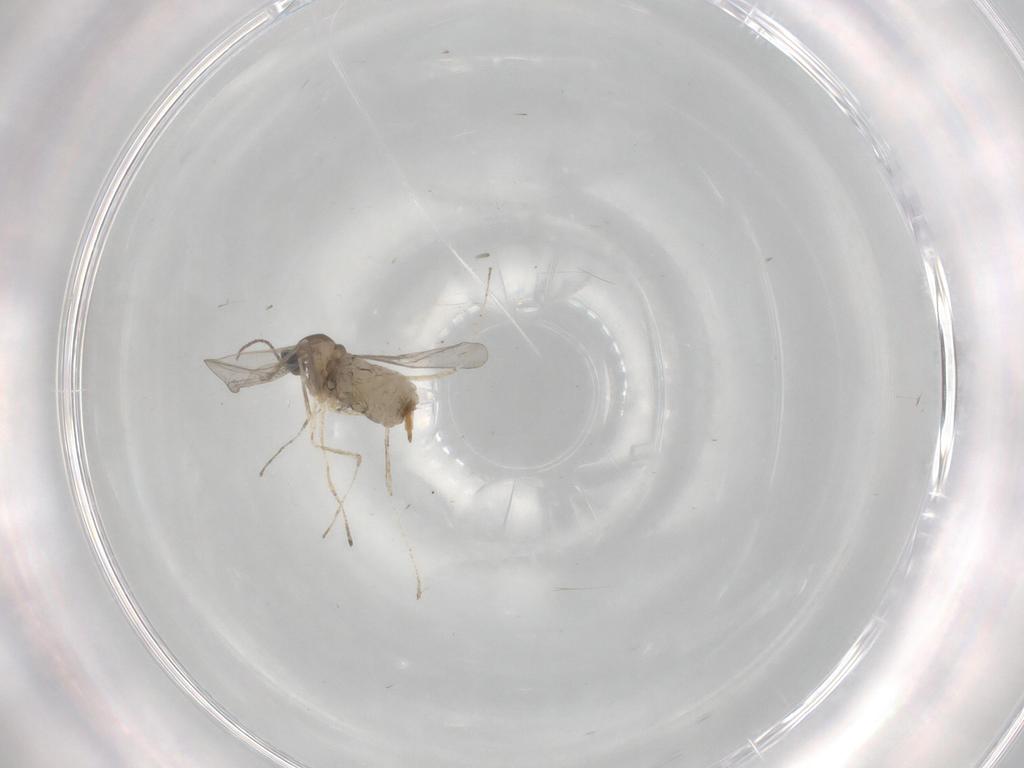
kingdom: Animalia
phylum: Arthropoda
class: Insecta
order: Diptera
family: Cecidomyiidae
